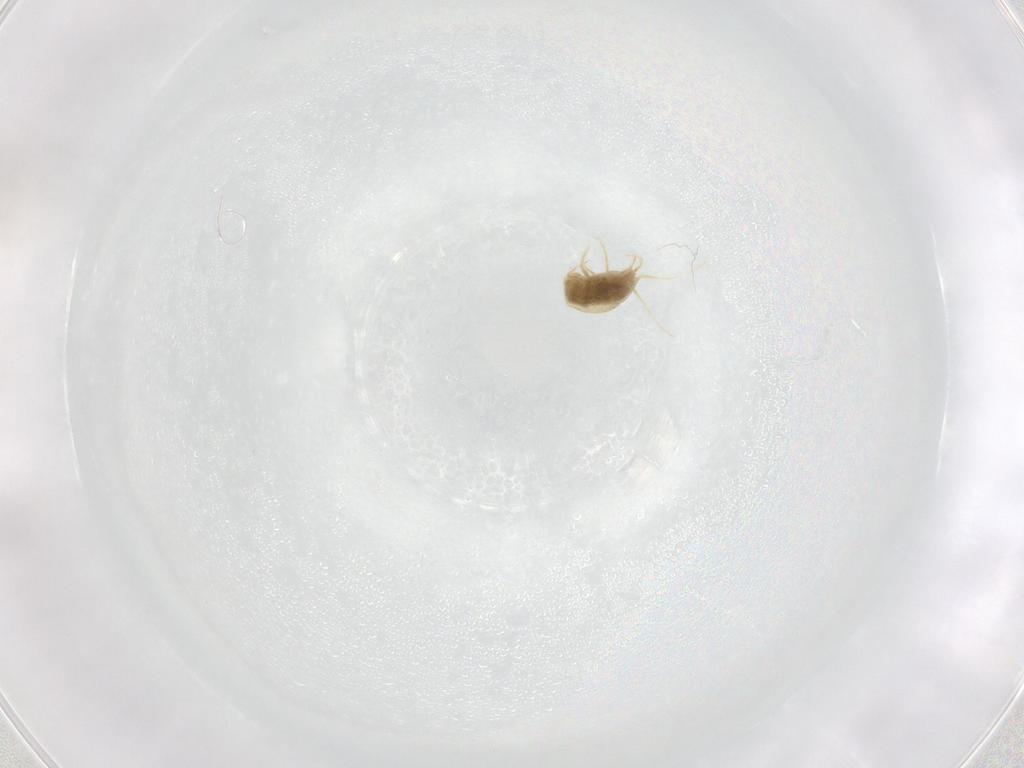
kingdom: Animalia
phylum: Arthropoda
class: Arachnida
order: Trombidiformes
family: Tetranychidae
